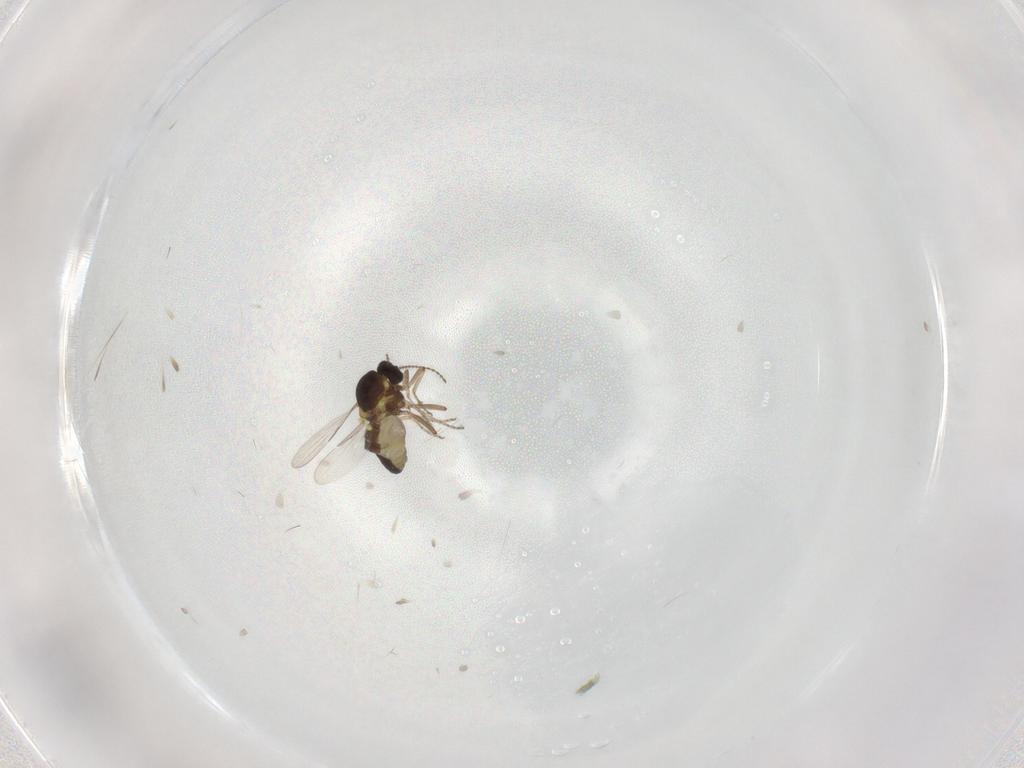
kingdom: Animalia
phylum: Arthropoda
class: Insecta
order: Diptera
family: Ceratopogonidae
